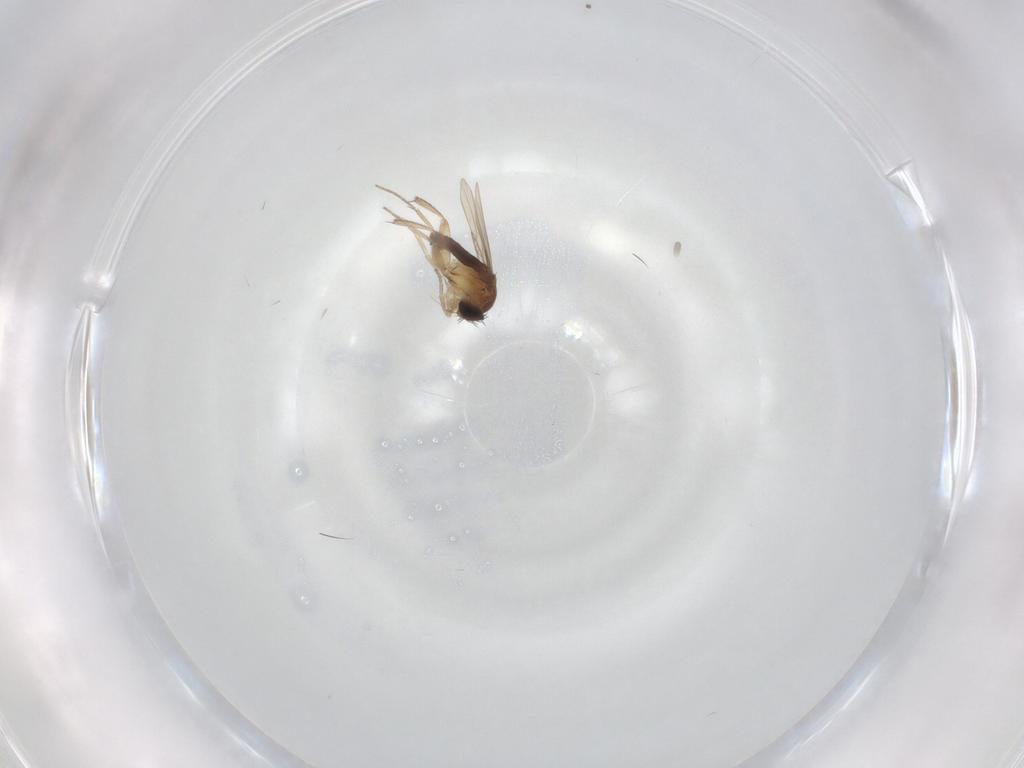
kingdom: Animalia
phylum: Arthropoda
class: Insecta
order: Diptera
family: Phoridae
